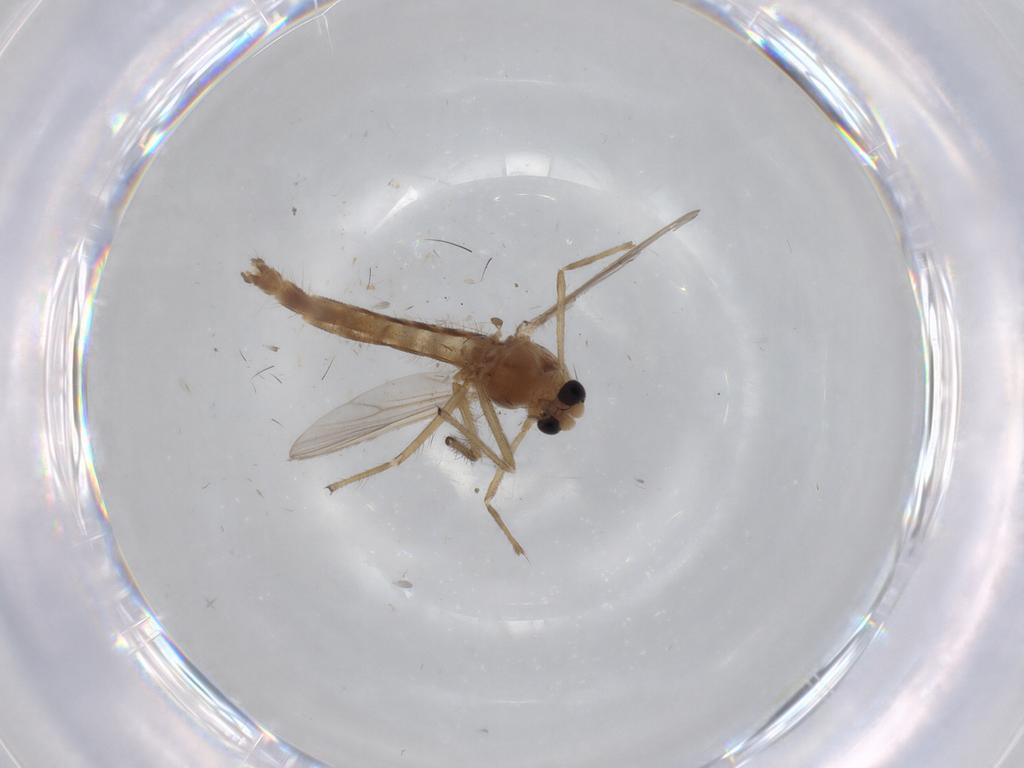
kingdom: Animalia
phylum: Arthropoda
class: Insecta
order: Diptera
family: Chironomidae
